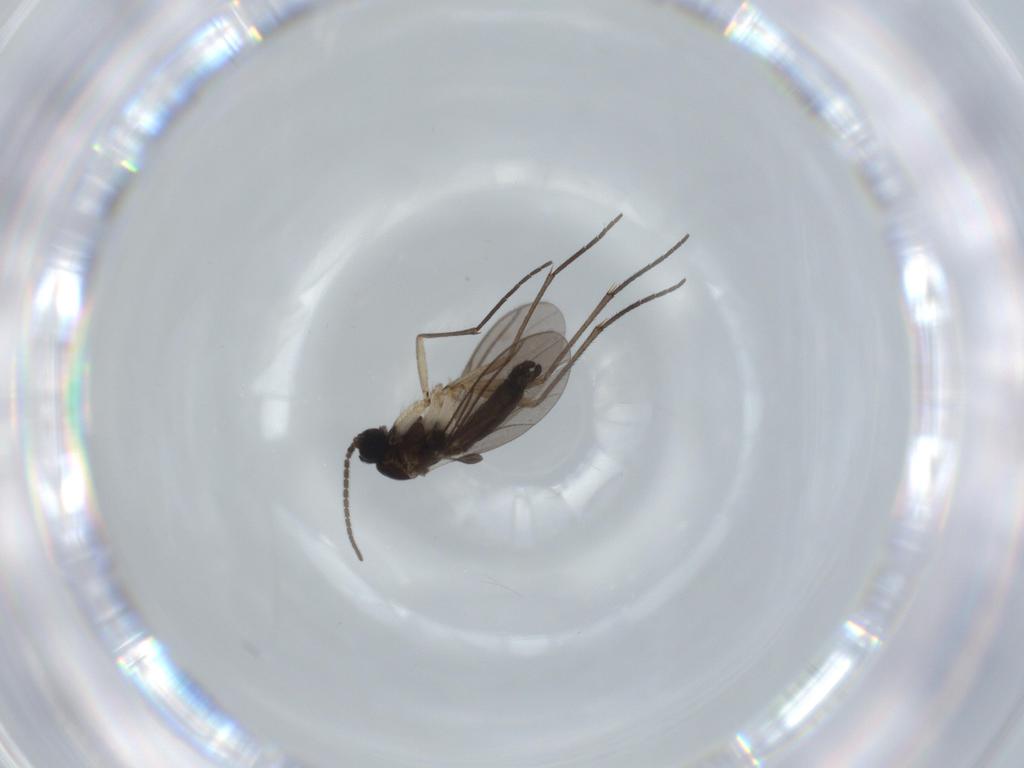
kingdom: Animalia
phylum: Arthropoda
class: Insecta
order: Diptera
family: Sciaridae
